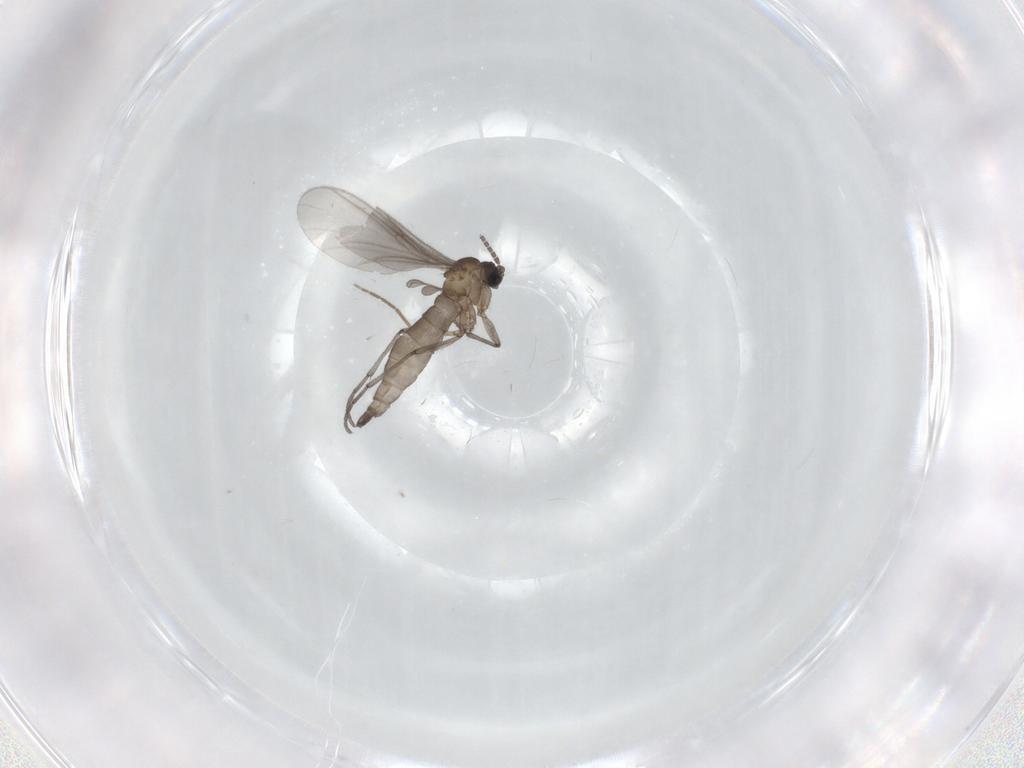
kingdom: Animalia
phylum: Arthropoda
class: Insecta
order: Diptera
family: Sciaridae
